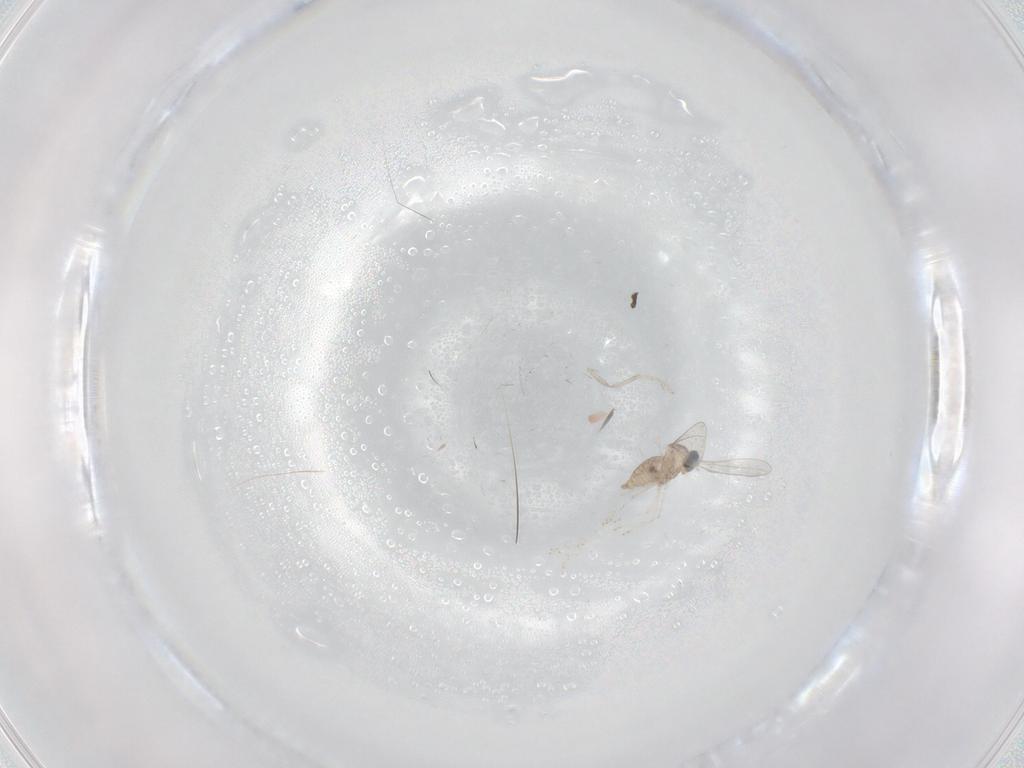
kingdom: Animalia
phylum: Arthropoda
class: Insecta
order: Diptera
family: Cecidomyiidae
